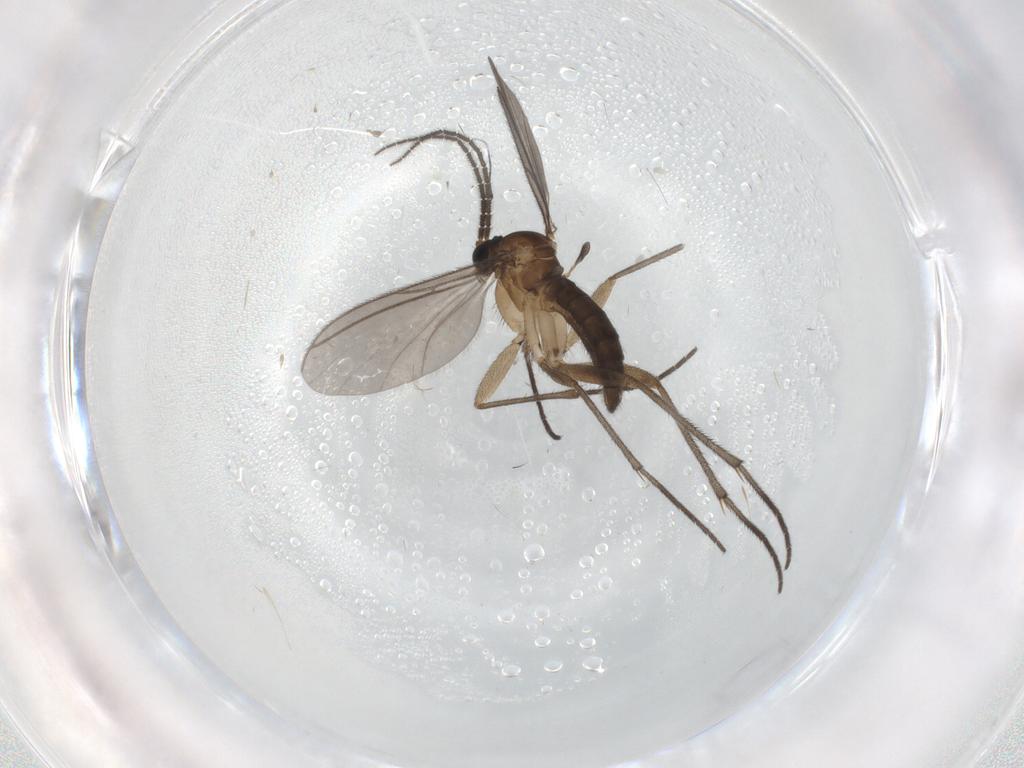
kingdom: Animalia
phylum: Arthropoda
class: Insecta
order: Diptera
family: Sciaridae
